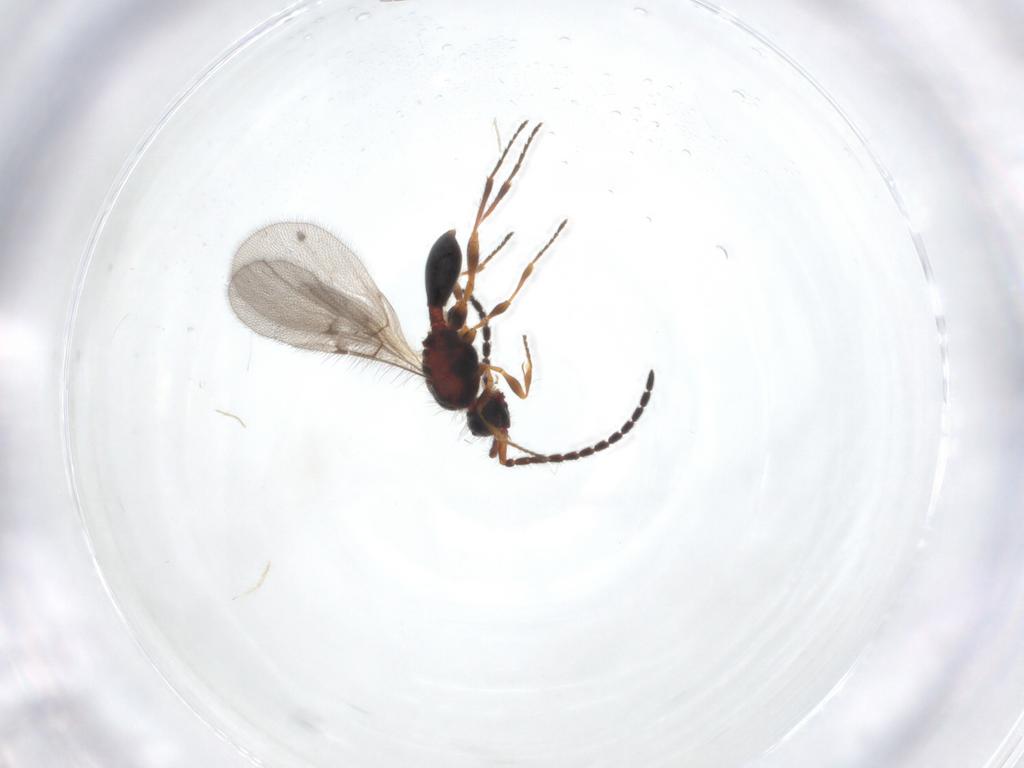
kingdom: Animalia
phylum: Arthropoda
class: Insecta
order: Hymenoptera
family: Diapriidae
